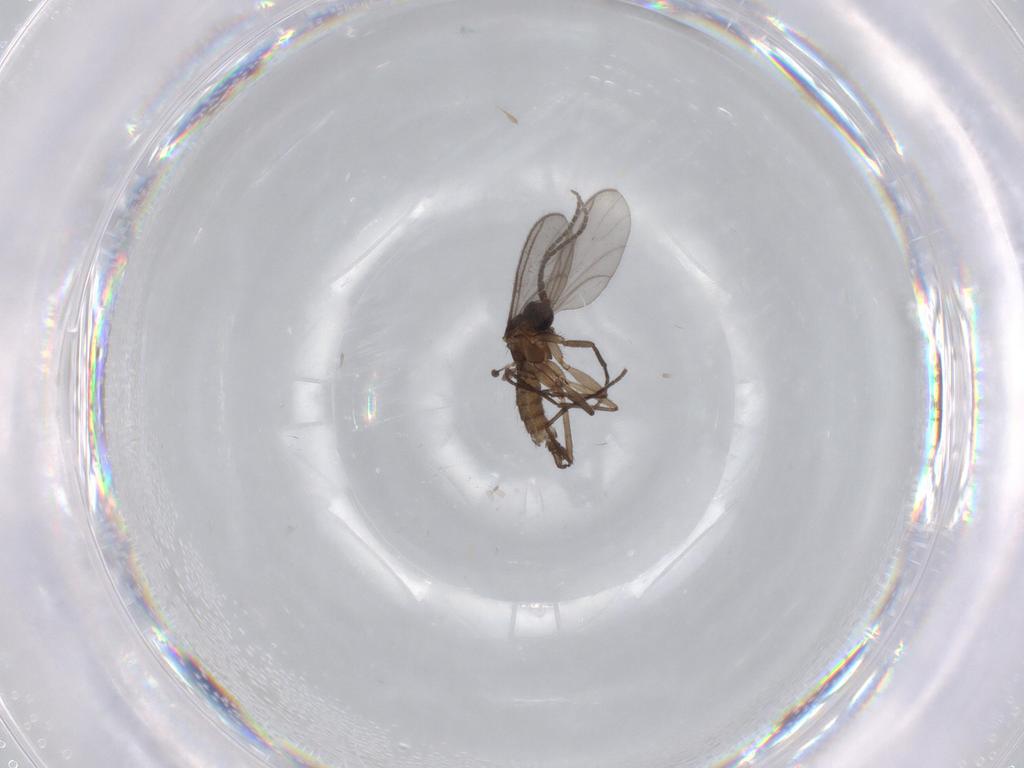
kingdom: Animalia
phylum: Arthropoda
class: Insecta
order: Diptera
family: Sciaridae
